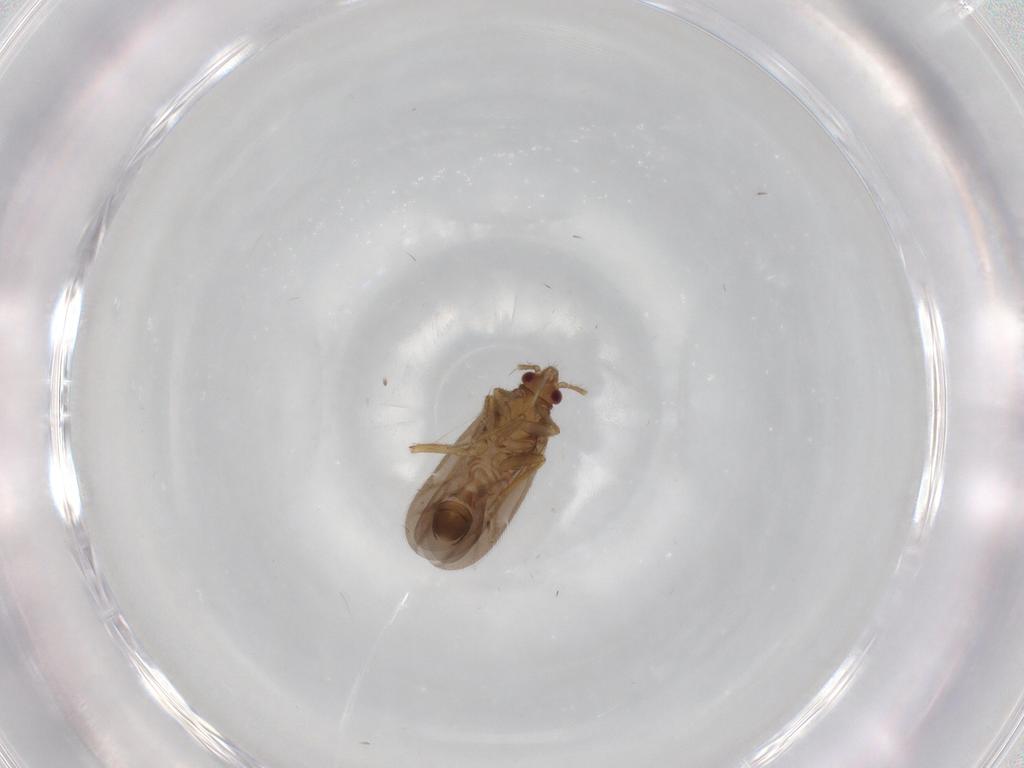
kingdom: Animalia
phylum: Arthropoda
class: Insecta
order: Hemiptera
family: Ceratocombidae
